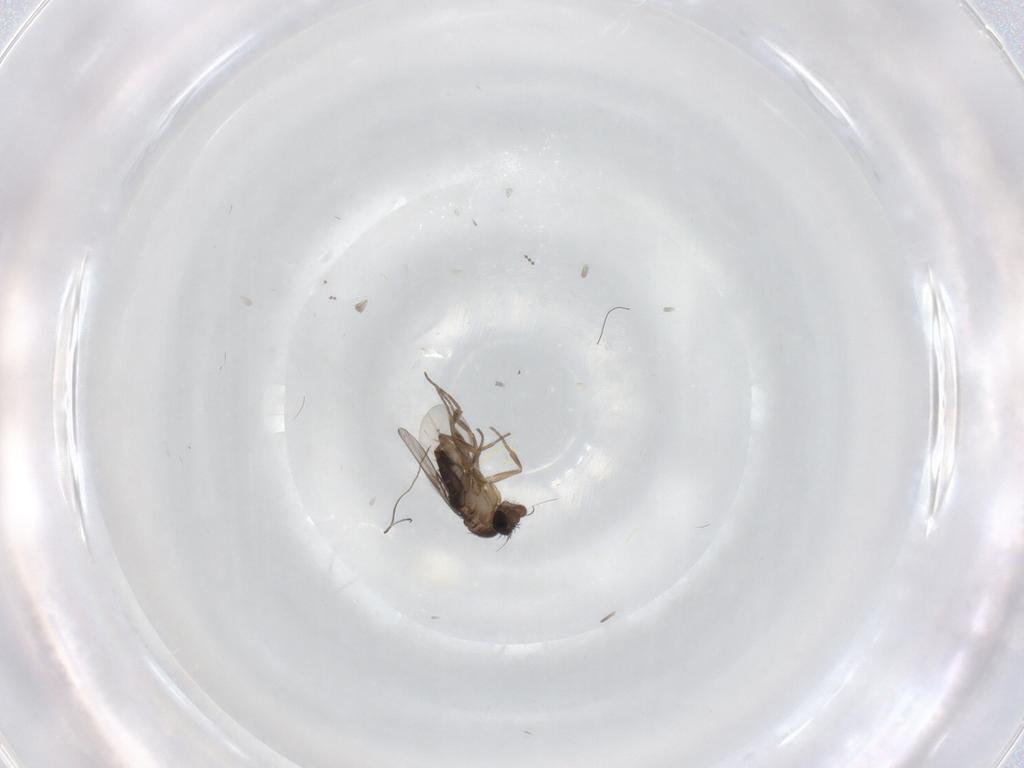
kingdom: Animalia
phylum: Arthropoda
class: Insecta
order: Diptera
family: Phoridae
